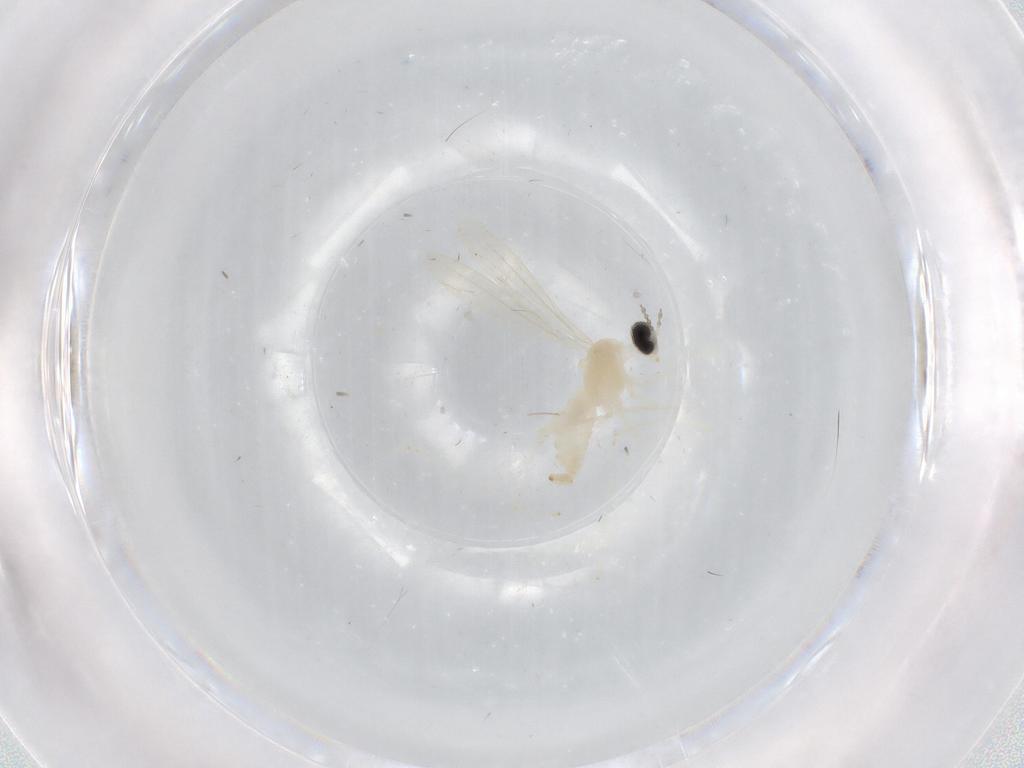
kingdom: Animalia
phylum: Arthropoda
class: Insecta
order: Diptera
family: Cecidomyiidae
